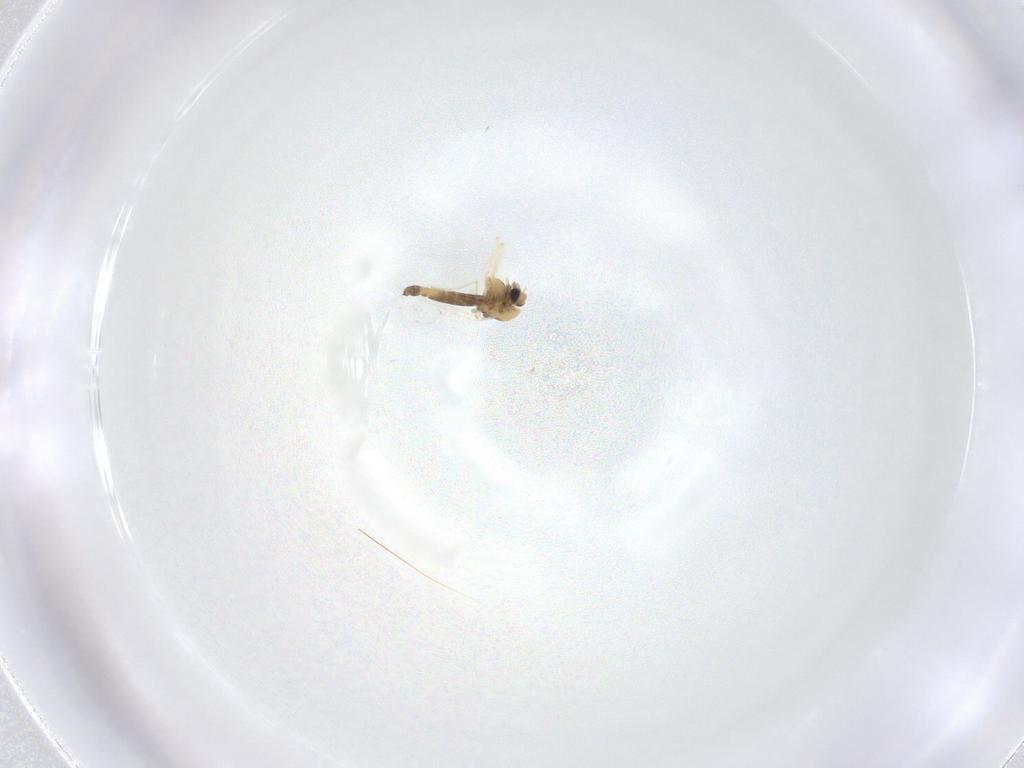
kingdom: Animalia
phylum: Arthropoda
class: Insecta
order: Diptera
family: Chironomidae
